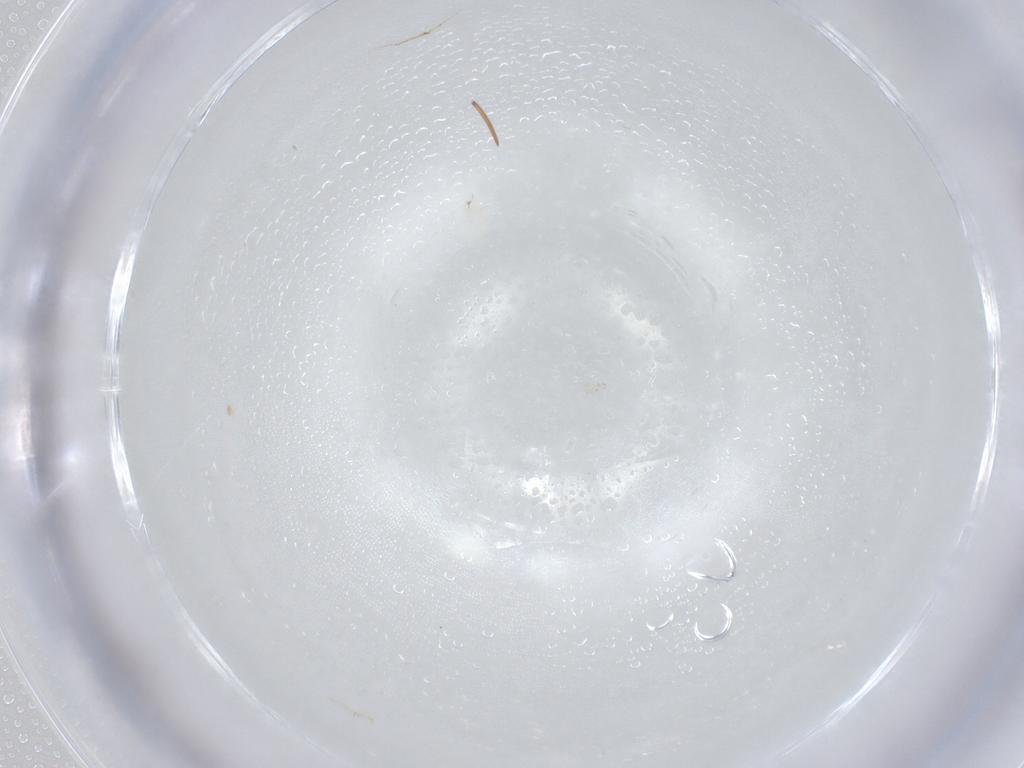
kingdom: Animalia
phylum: Arthropoda
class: Collembola
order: Entomobryomorpha
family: Entomobryidae
